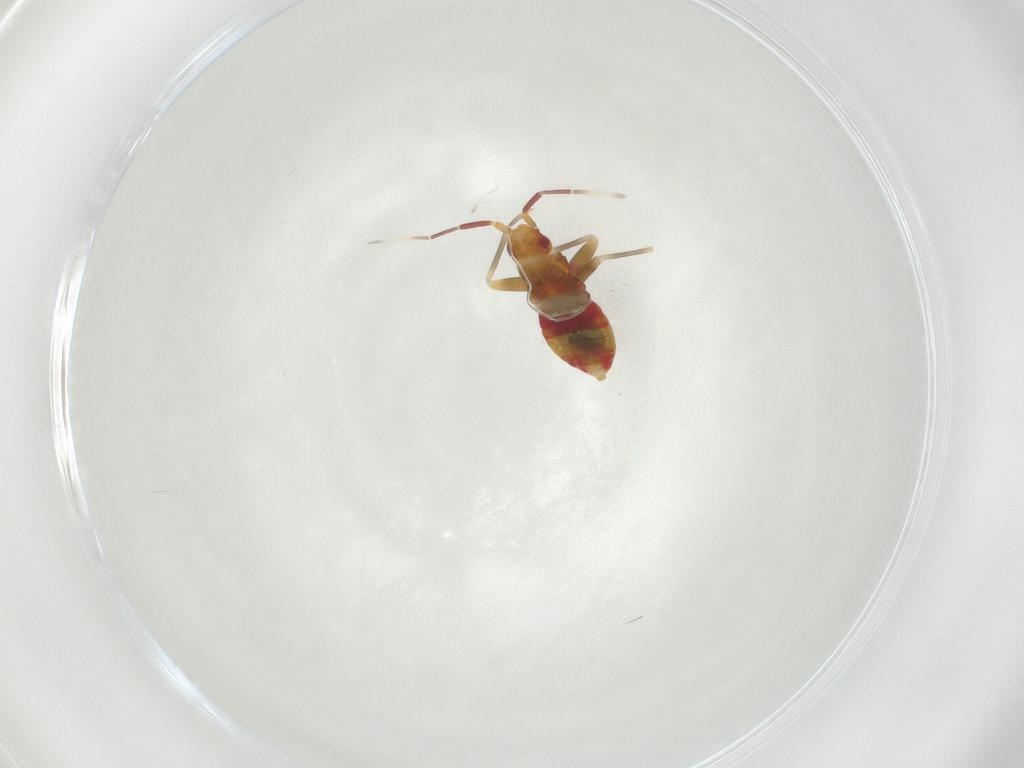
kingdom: Animalia
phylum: Arthropoda
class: Insecta
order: Hemiptera
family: Miridae
